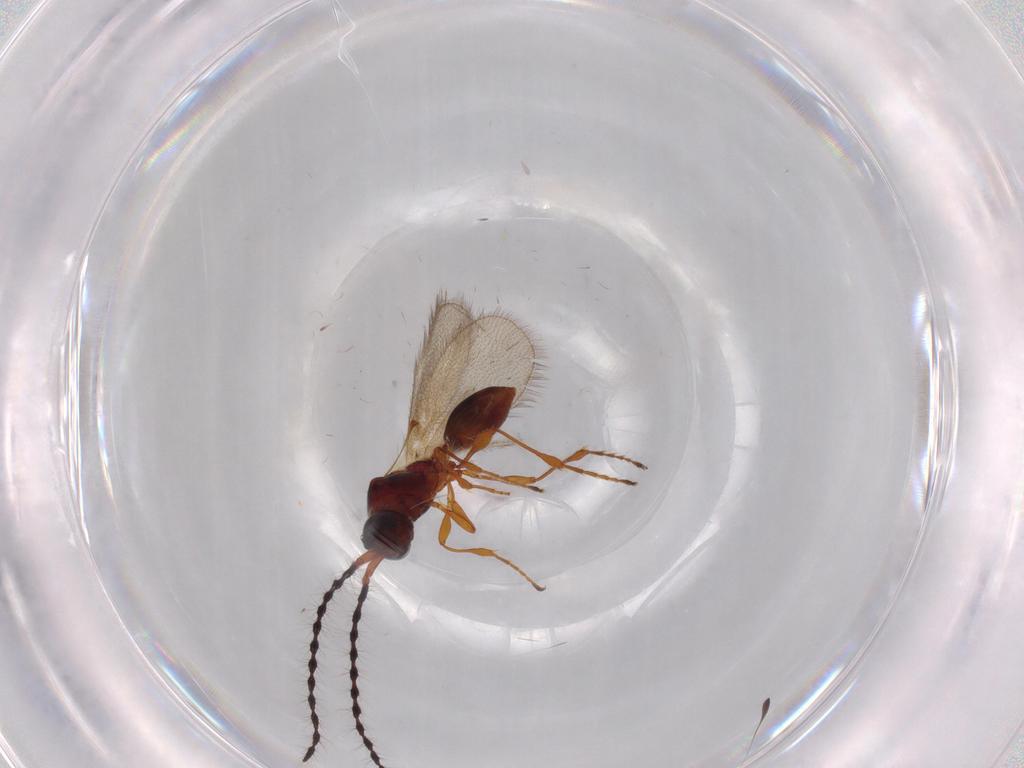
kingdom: Animalia
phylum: Arthropoda
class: Insecta
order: Hymenoptera
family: Diapriidae
